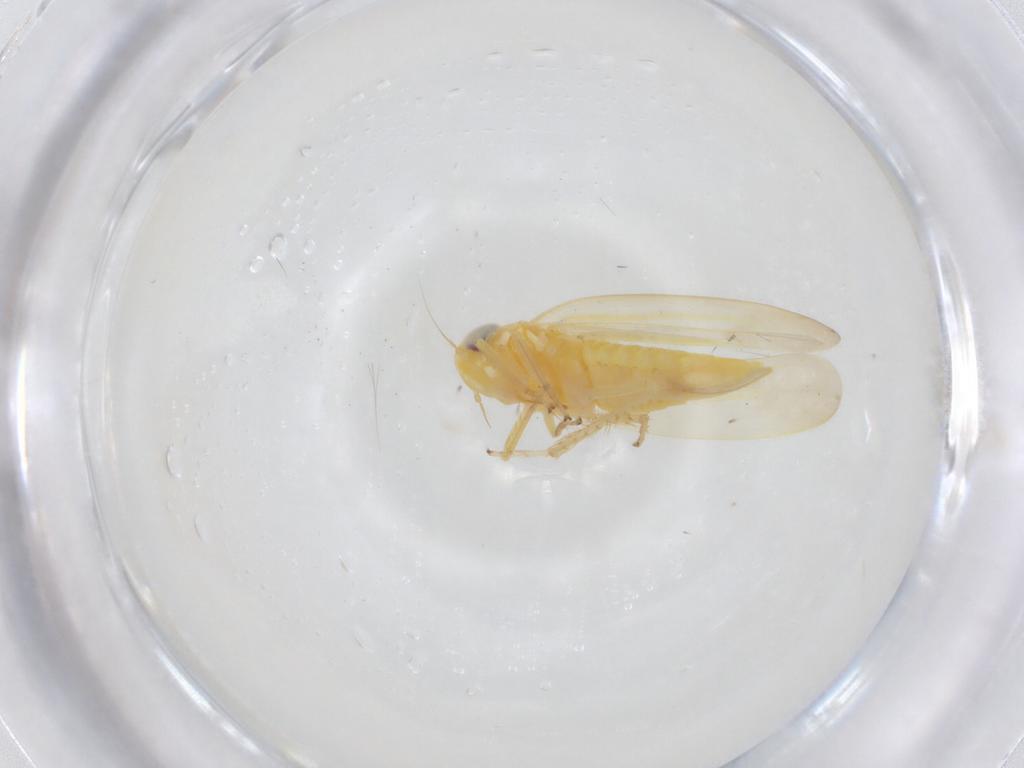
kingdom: Animalia
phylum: Arthropoda
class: Insecta
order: Hemiptera
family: Cicadellidae
